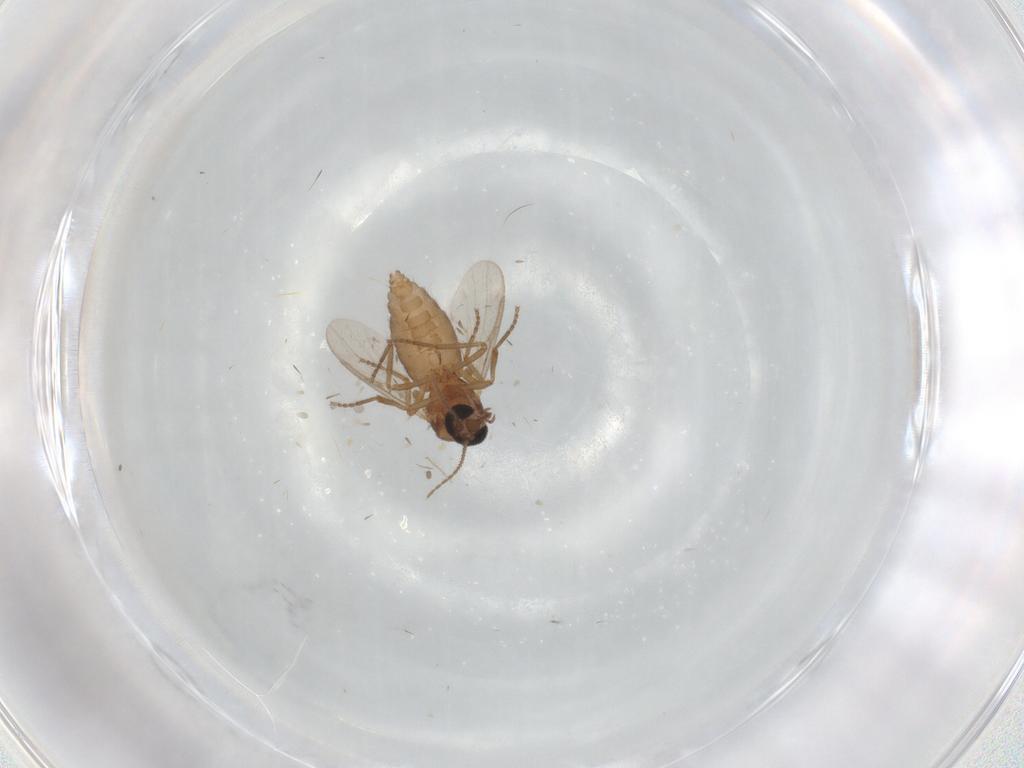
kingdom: Animalia
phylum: Arthropoda
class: Insecta
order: Diptera
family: Ceratopogonidae
